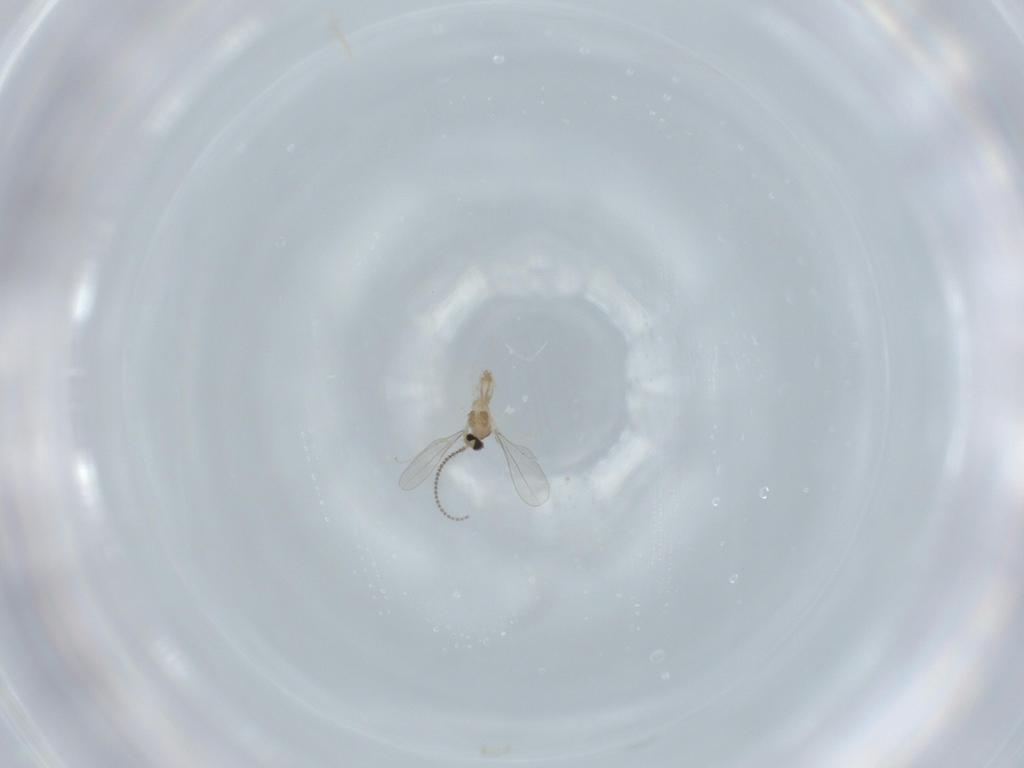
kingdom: Animalia
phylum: Arthropoda
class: Insecta
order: Diptera
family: Cecidomyiidae
